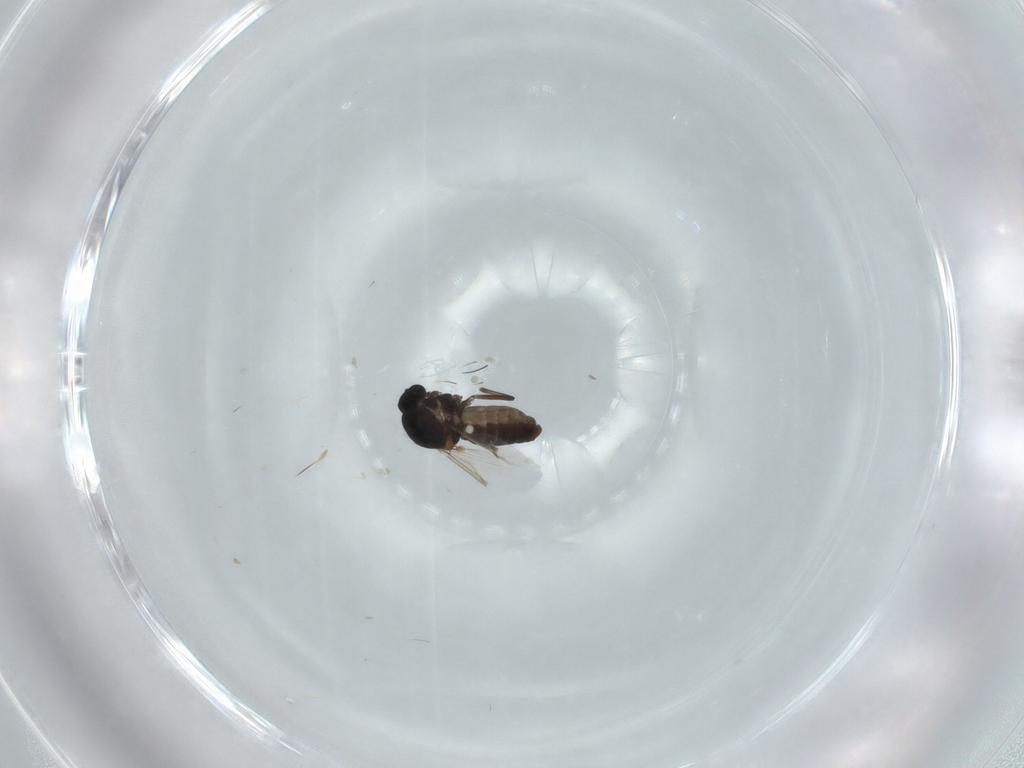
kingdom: Animalia
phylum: Arthropoda
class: Insecta
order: Diptera
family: Ceratopogonidae
